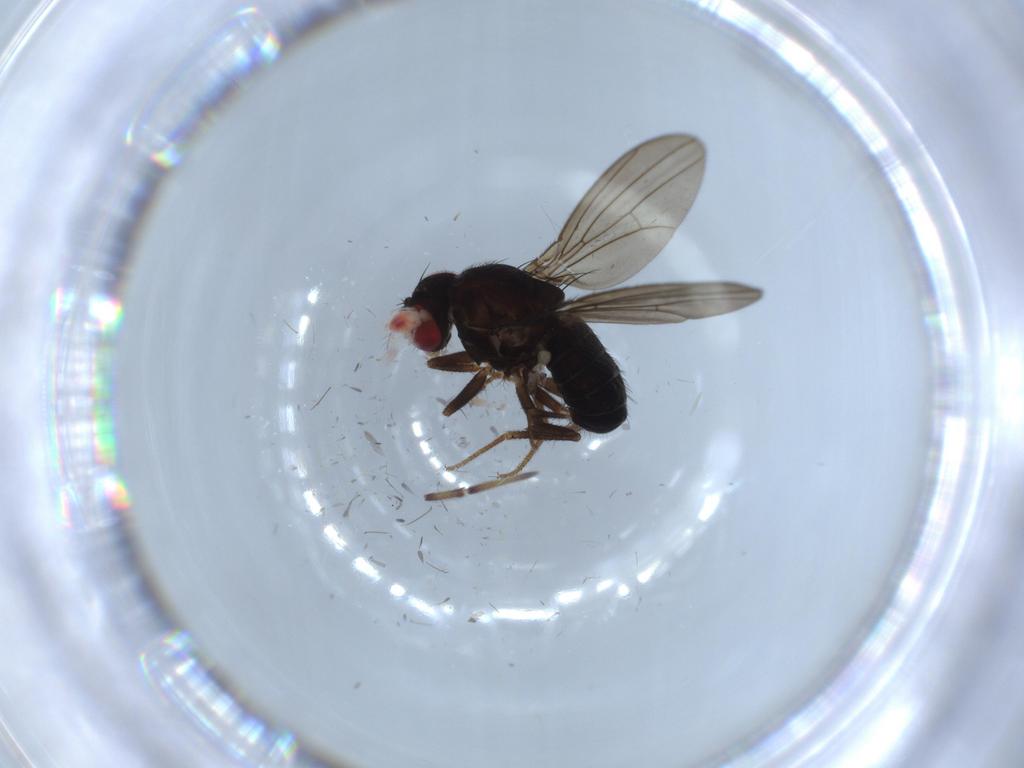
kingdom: Animalia
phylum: Arthropoda
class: Insecta
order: Diptera
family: Drosophilidae
